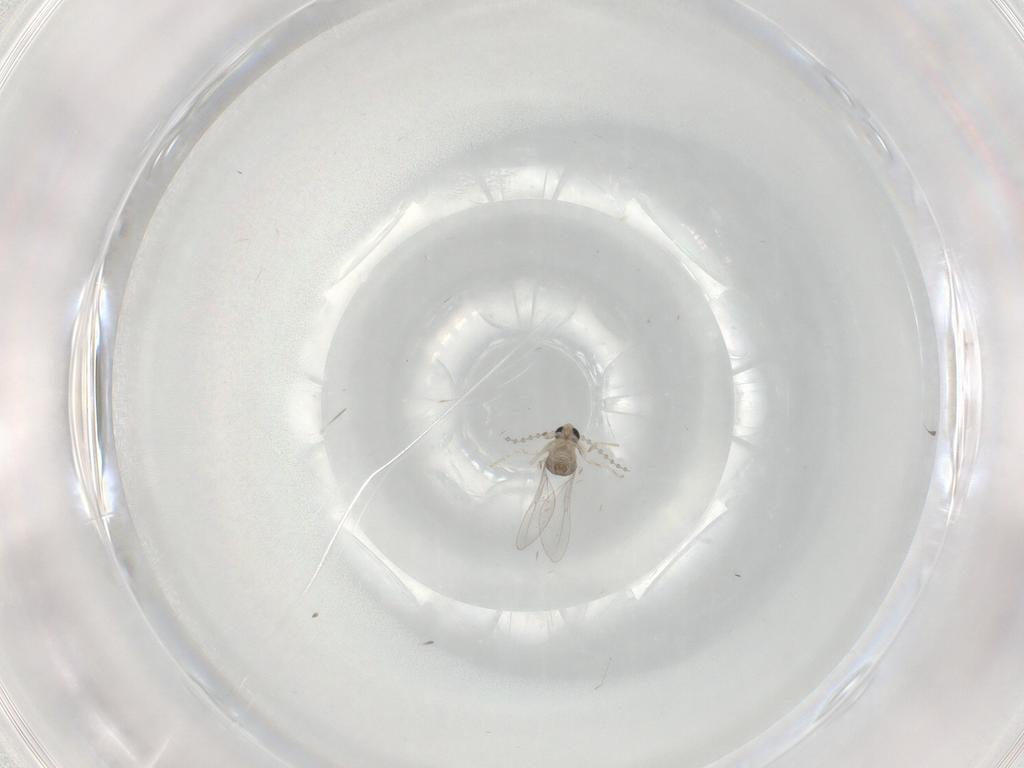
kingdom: Animalia
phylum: Arthropoda
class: Insecta
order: Diptera
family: Cecidomyiidae
